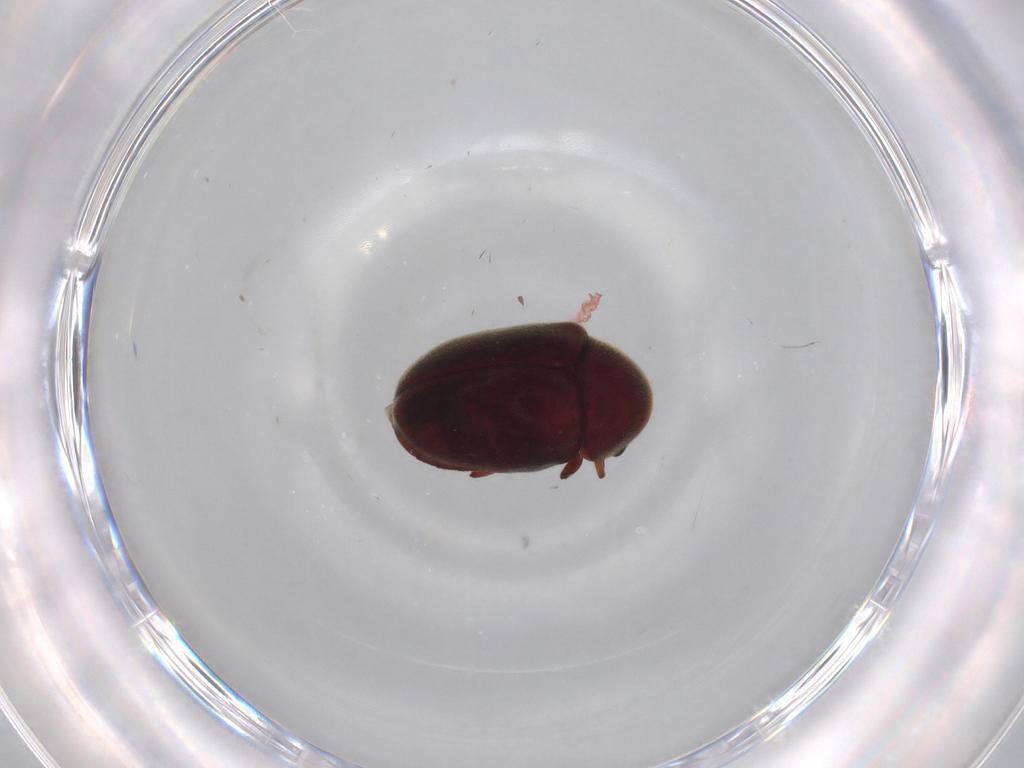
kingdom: Animalia
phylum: Arthropoda
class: Insecta
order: Coleoptera
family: Ptinidae
